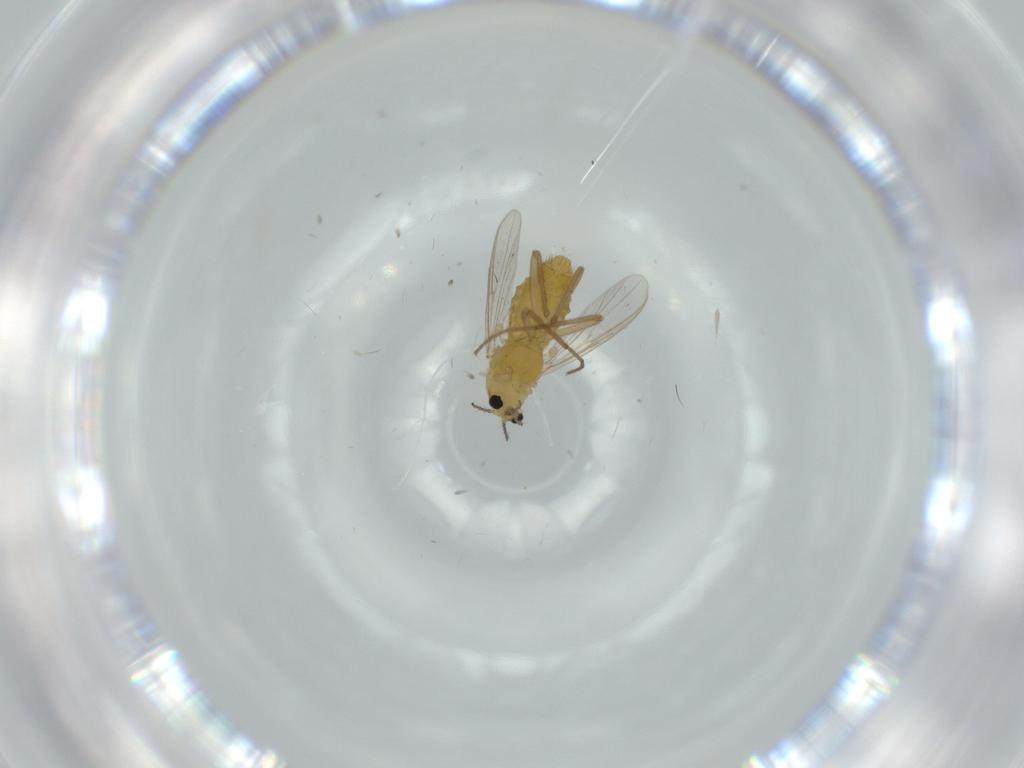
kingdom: Animalia
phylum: Arthropoda
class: Insecta
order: Diptera
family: Chironomidae
